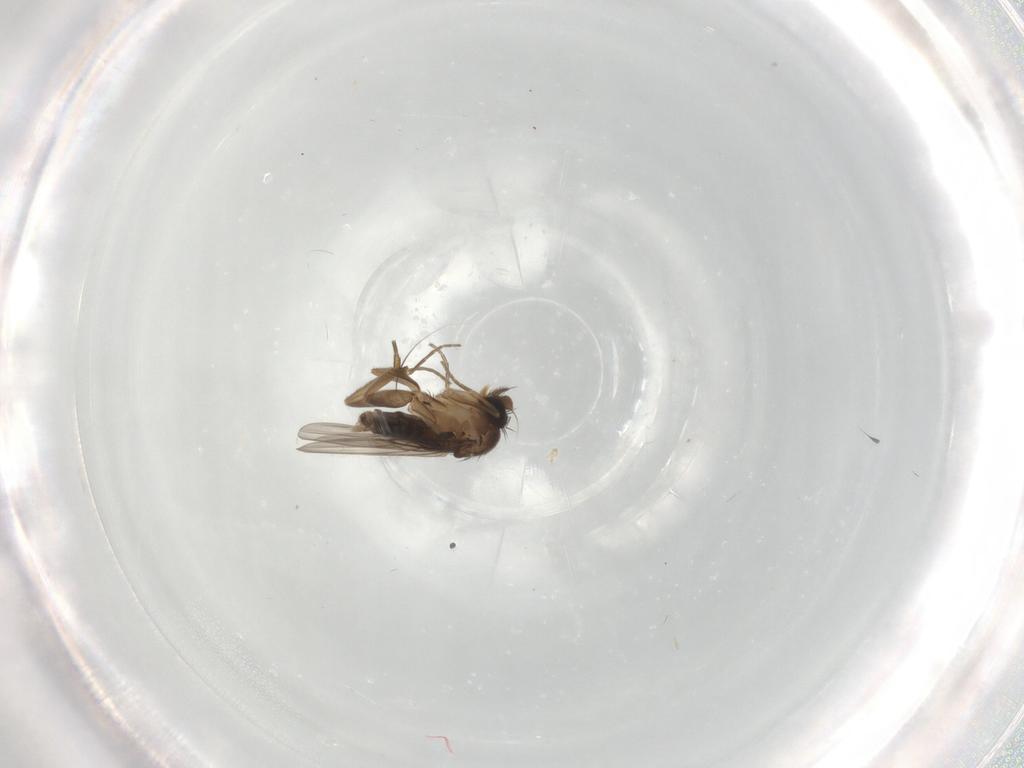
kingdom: Animalia
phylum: Arthropoda
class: Insecta
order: Diptera
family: Phoridae
